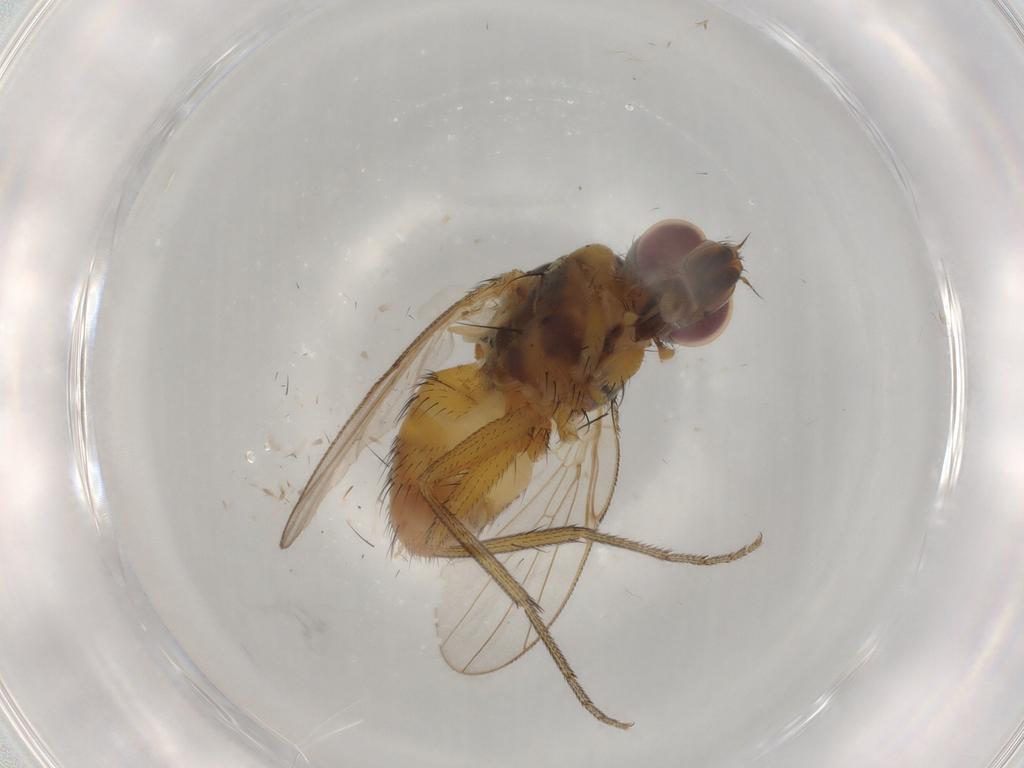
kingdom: Animalia
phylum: Arthropoda
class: Insecta
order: Diptera
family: Muscidae
